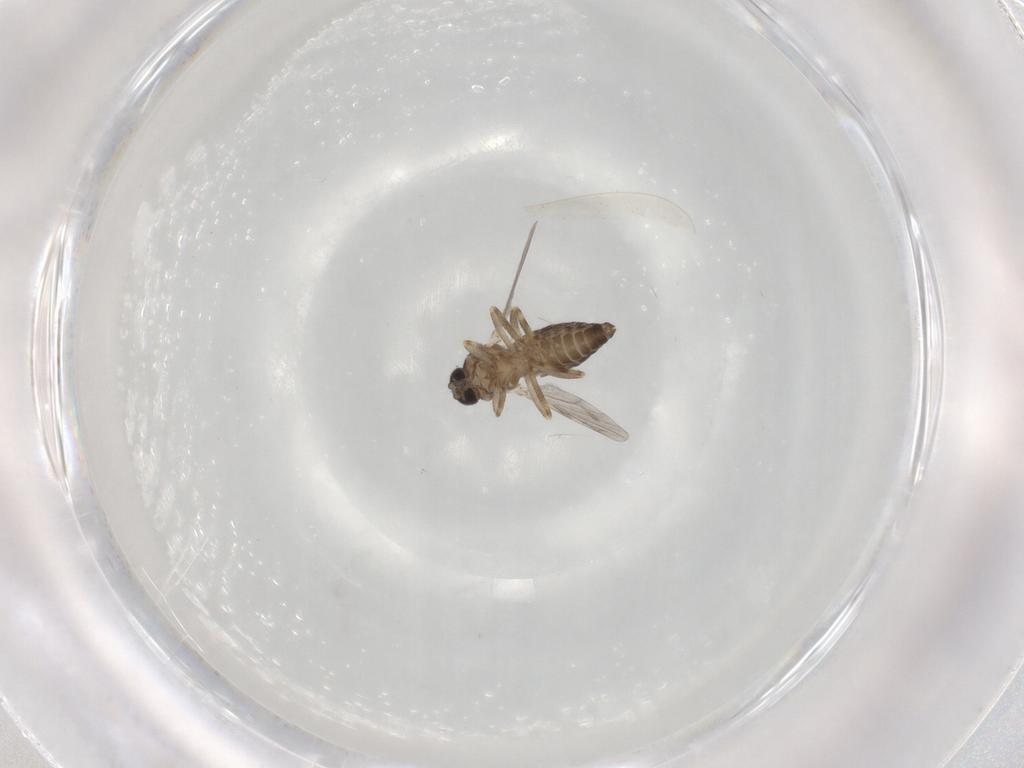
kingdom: Animalia
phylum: Arthropoda
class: Insecta
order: Diptera
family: Ceratopogonidae
